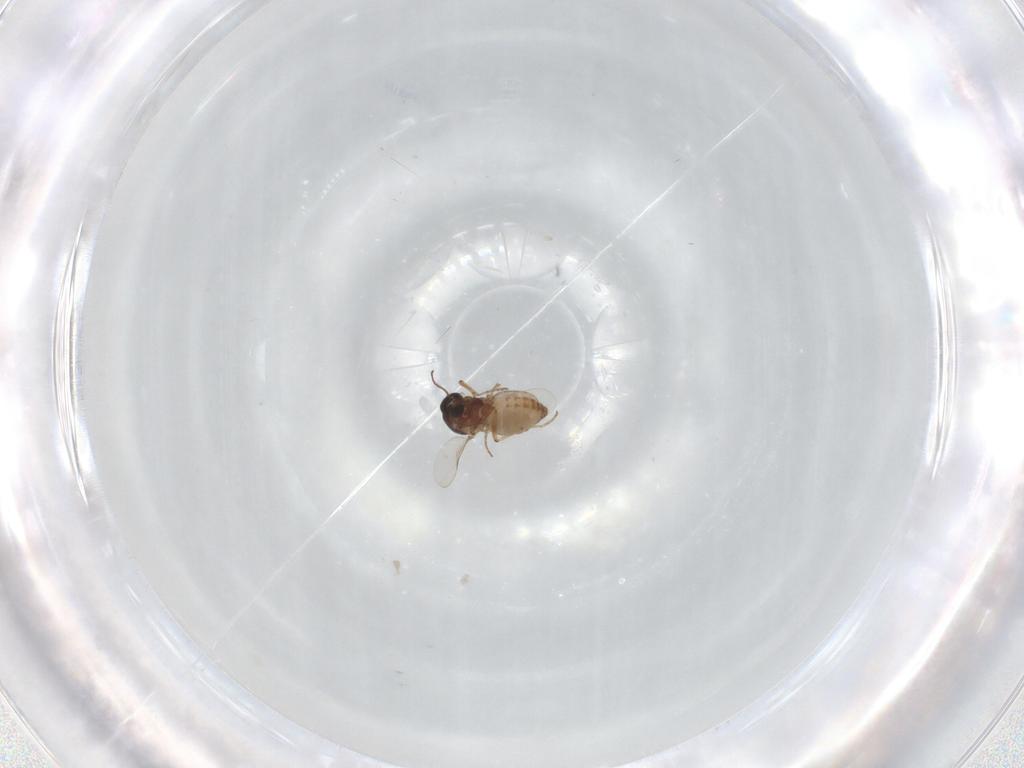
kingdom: Animalia
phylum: Arthropoda
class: Insecta
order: Diptera
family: Ceratopogonidae
